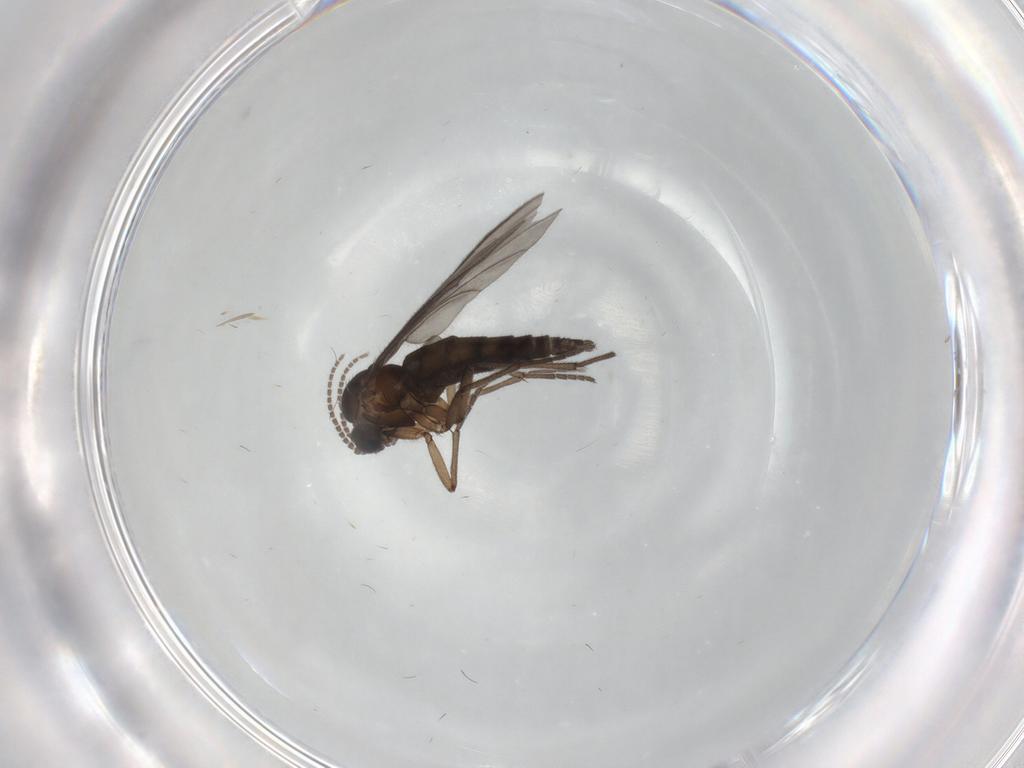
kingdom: Animalia
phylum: Arthropoda
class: Insecta
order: Diptera
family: Sciaridae
